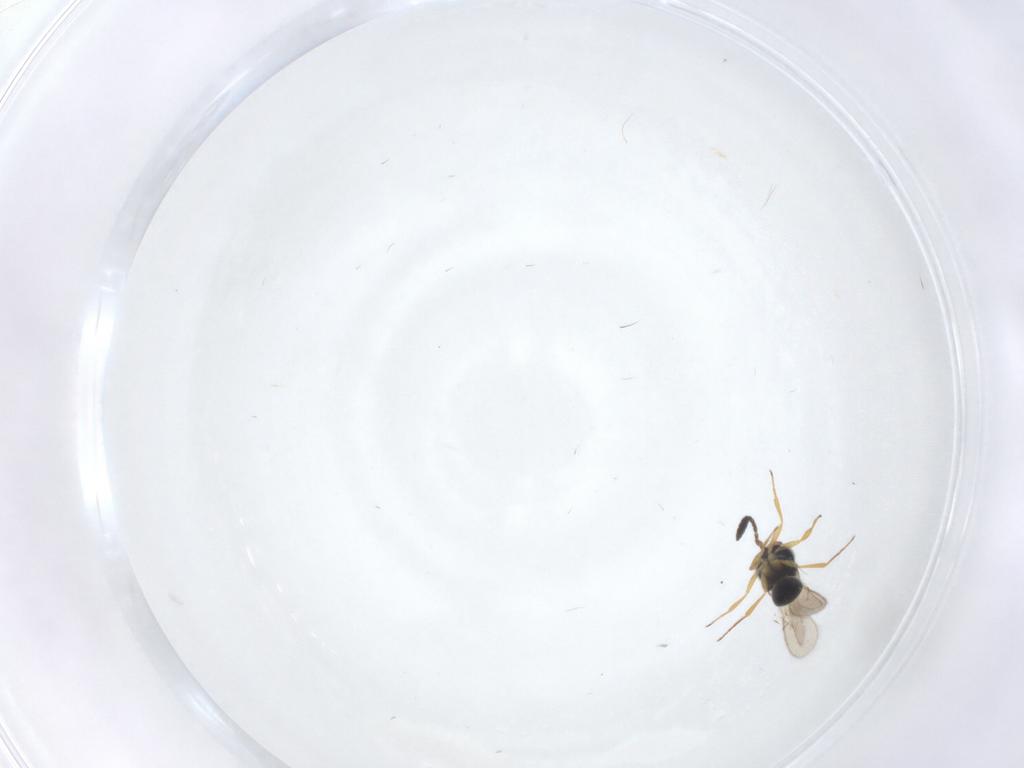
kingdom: Animalia
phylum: Arthropoda
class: Insecta
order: Hymenoptera
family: Scelionidae
